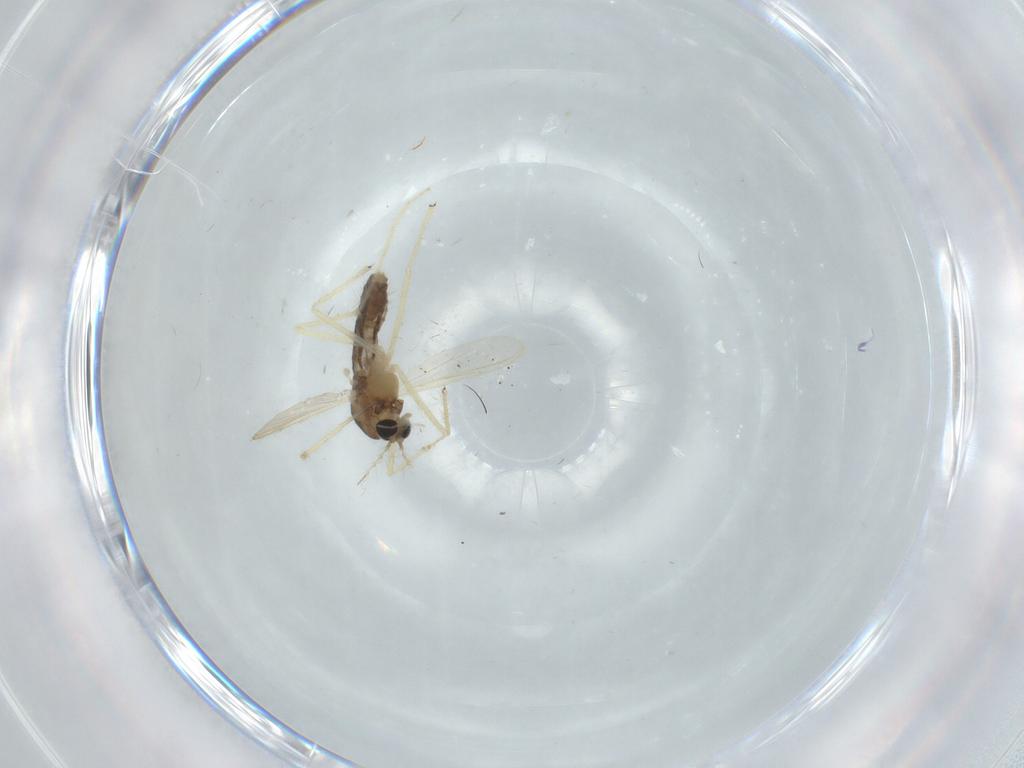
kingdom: Animalia
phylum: Arthropoda
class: Insecta
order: Diptera
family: Chironomidae
